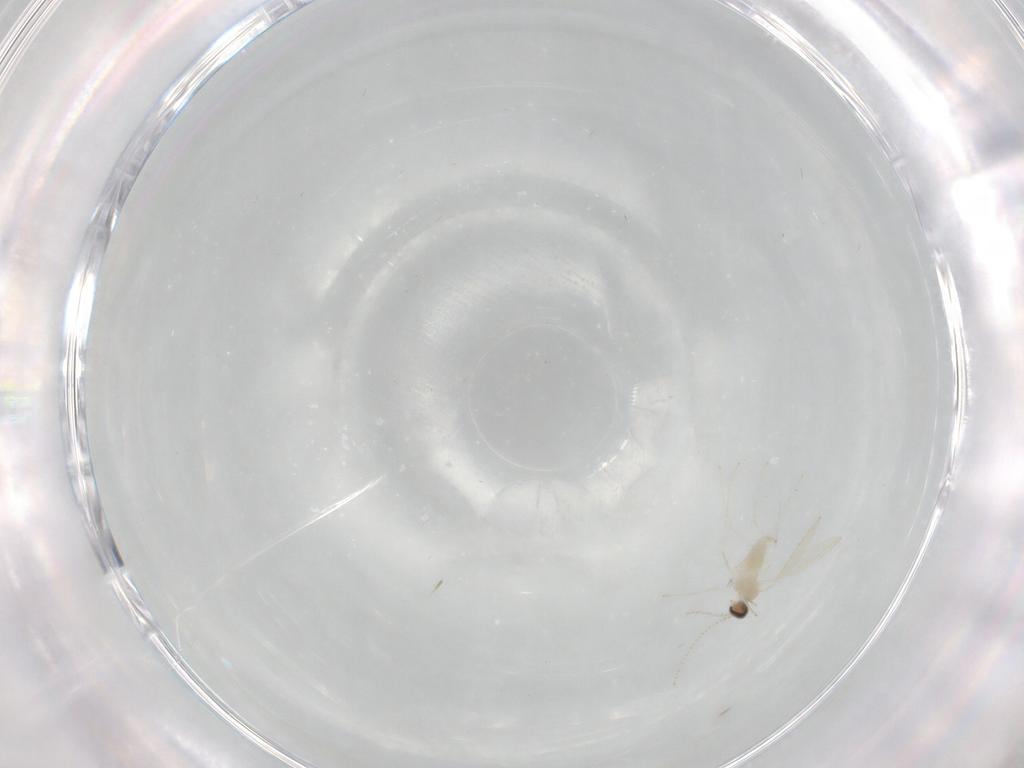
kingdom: Animalia
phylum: Arthropoda
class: Insecta
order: Diptera
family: Cecidomyiidae
